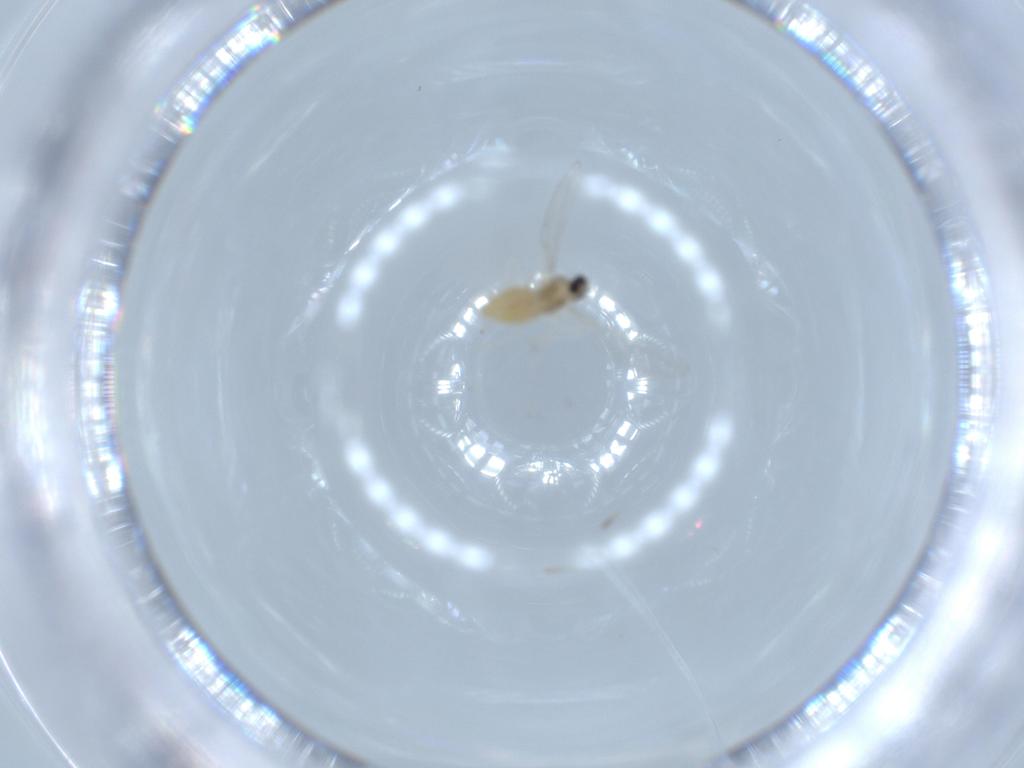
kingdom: Animalia
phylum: Arthropoda
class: Insecta
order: Diptera
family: Cecidomyiidae
